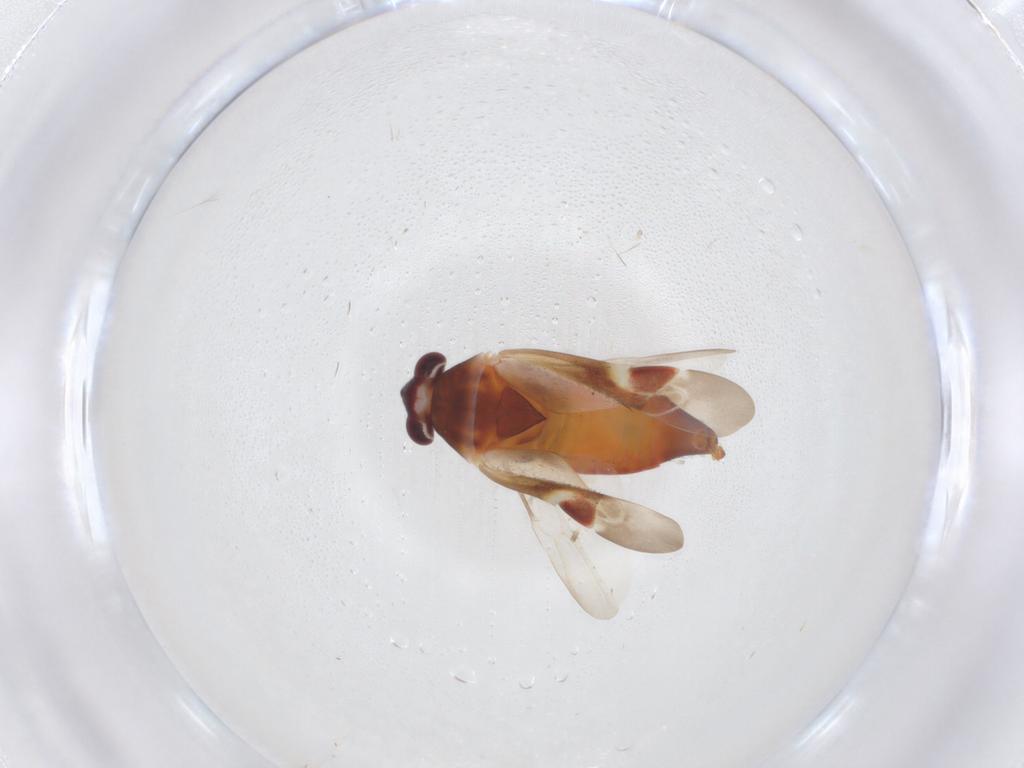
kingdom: Animalia
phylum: Arthropoda
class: Insecta
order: Hemiptera
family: Miridae
